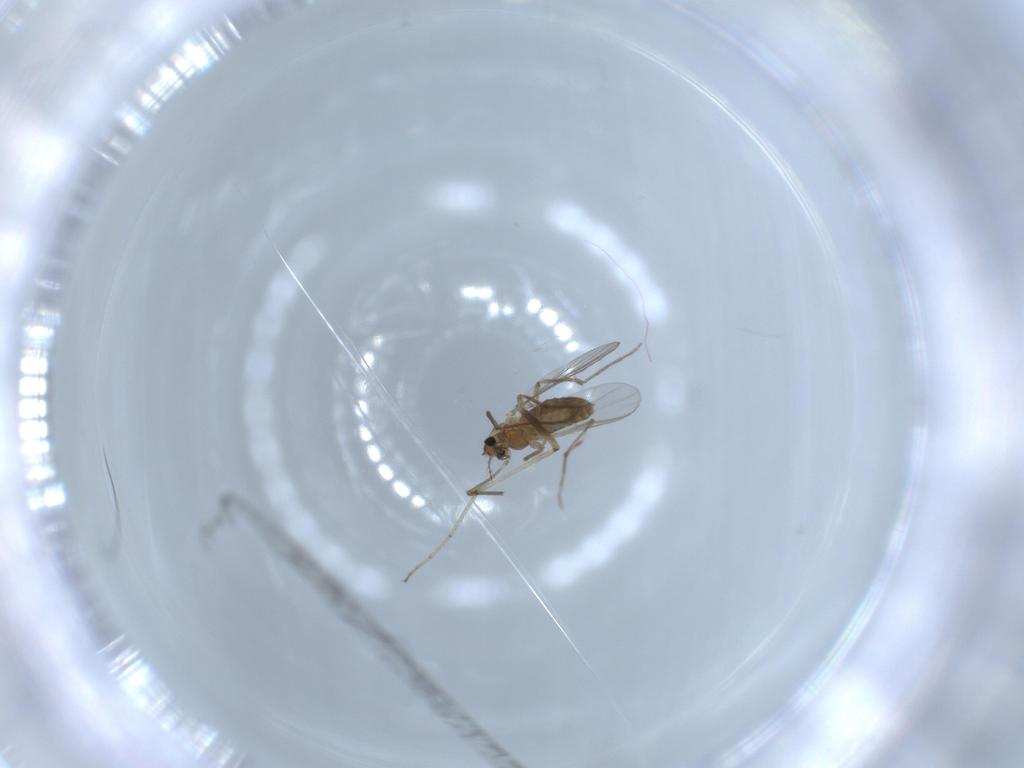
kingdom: Animalia
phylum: Arthropoda
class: Insecta
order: Diptera
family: Chironomidae
